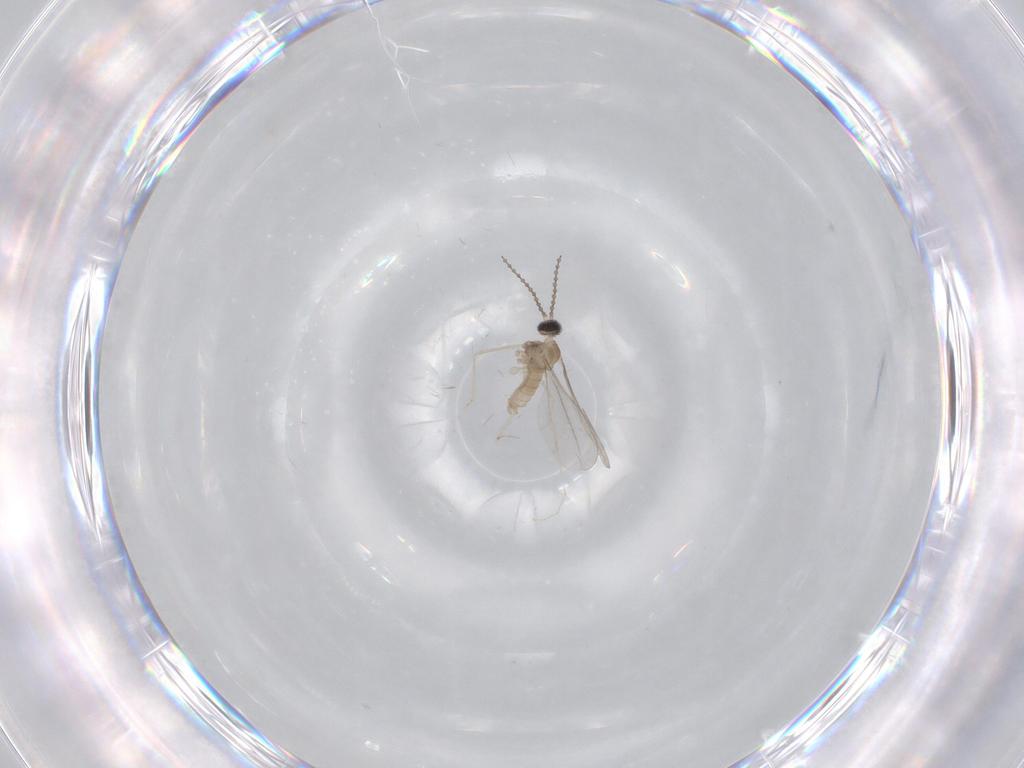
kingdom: Animalia
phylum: Arthropoda
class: Insecta
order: Diptera
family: Cecidomyiidae
